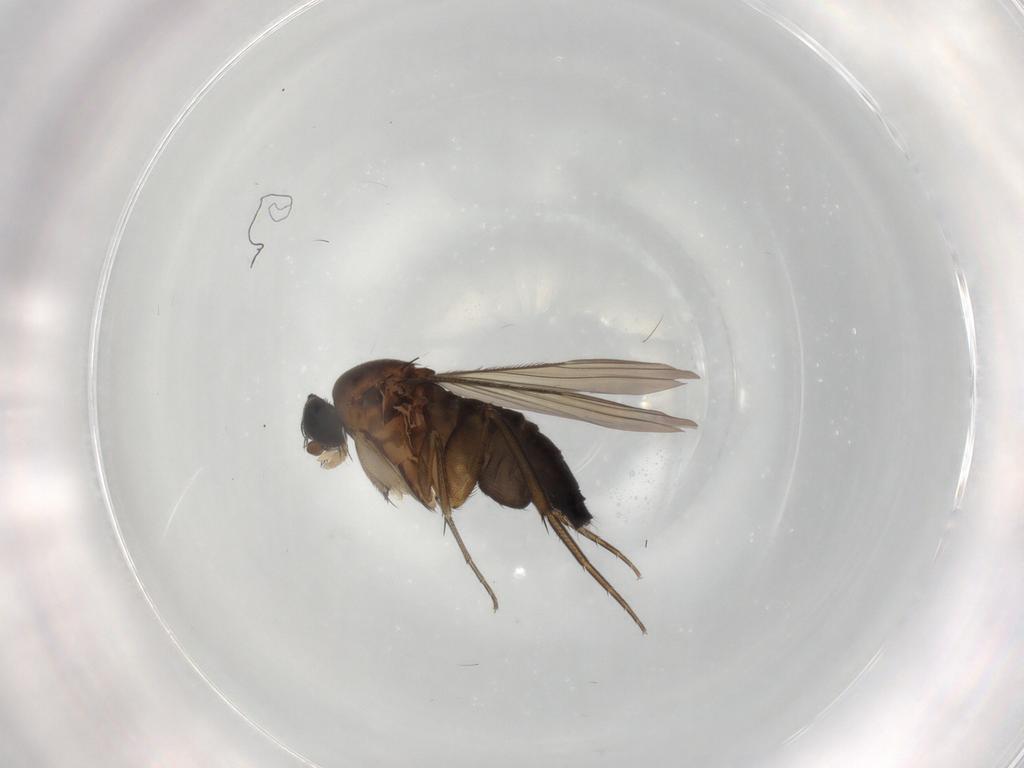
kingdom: Animalia
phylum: Arthropoda
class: Insecta
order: Diptera
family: Phoridae
